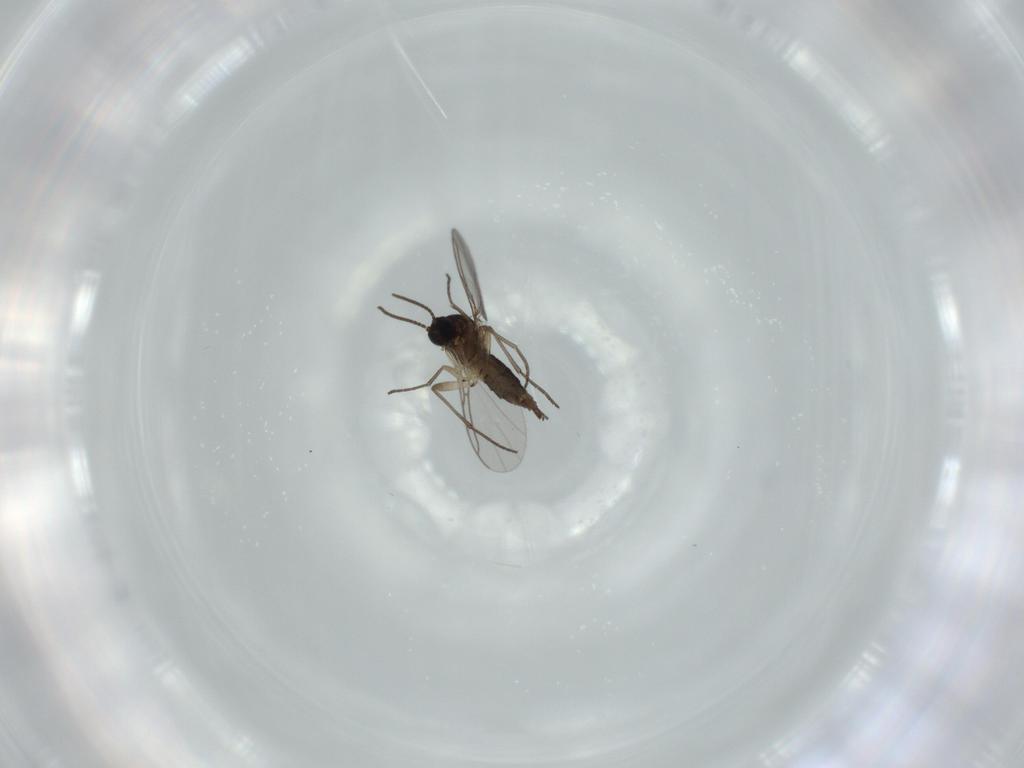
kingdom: Animalia
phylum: Arthropoda
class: Insecta
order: Diptera
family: Sciaridae
